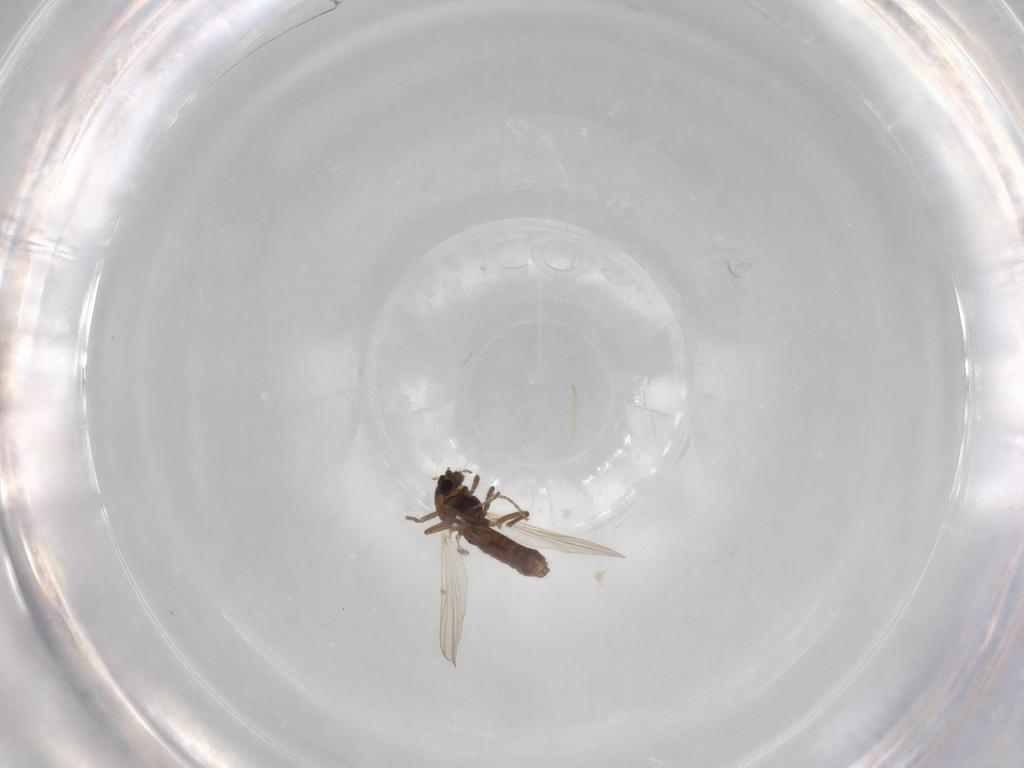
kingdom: Animalia
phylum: Arthropoda
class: Insecta
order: Diptera
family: Chironomidae
